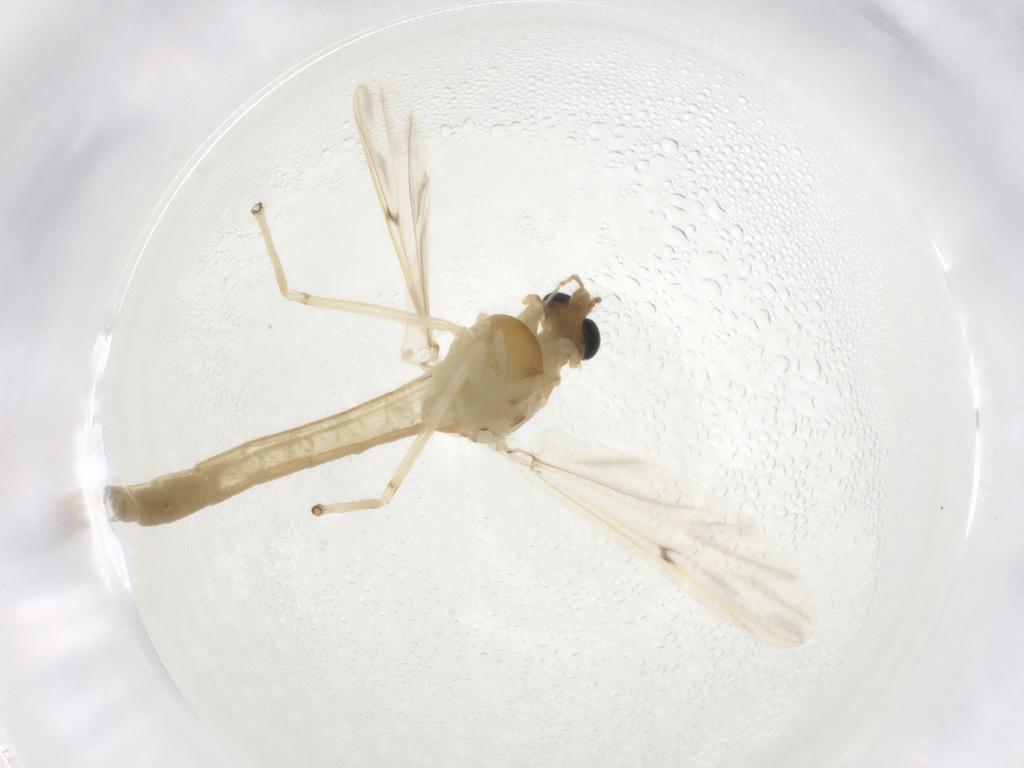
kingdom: Animalia
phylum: Arthropoda
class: Insecta
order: Diptera
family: Chironomidae
